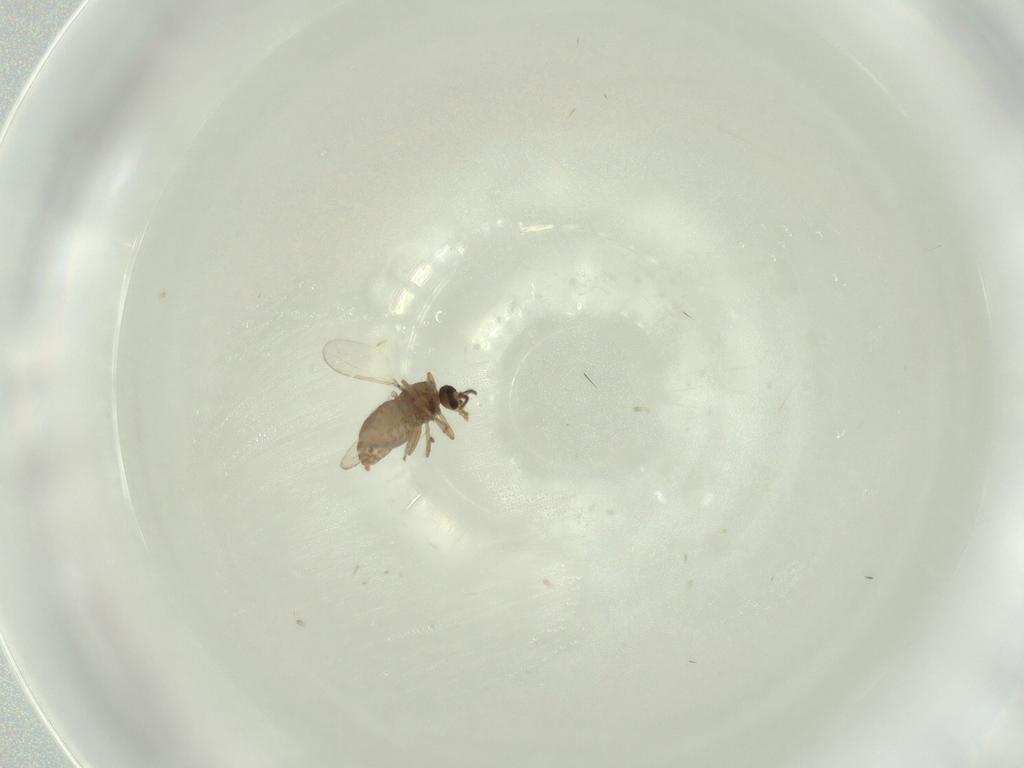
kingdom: Animalia
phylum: Arthropoda
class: Insecta
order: Diptera
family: Ceratopogonidae
